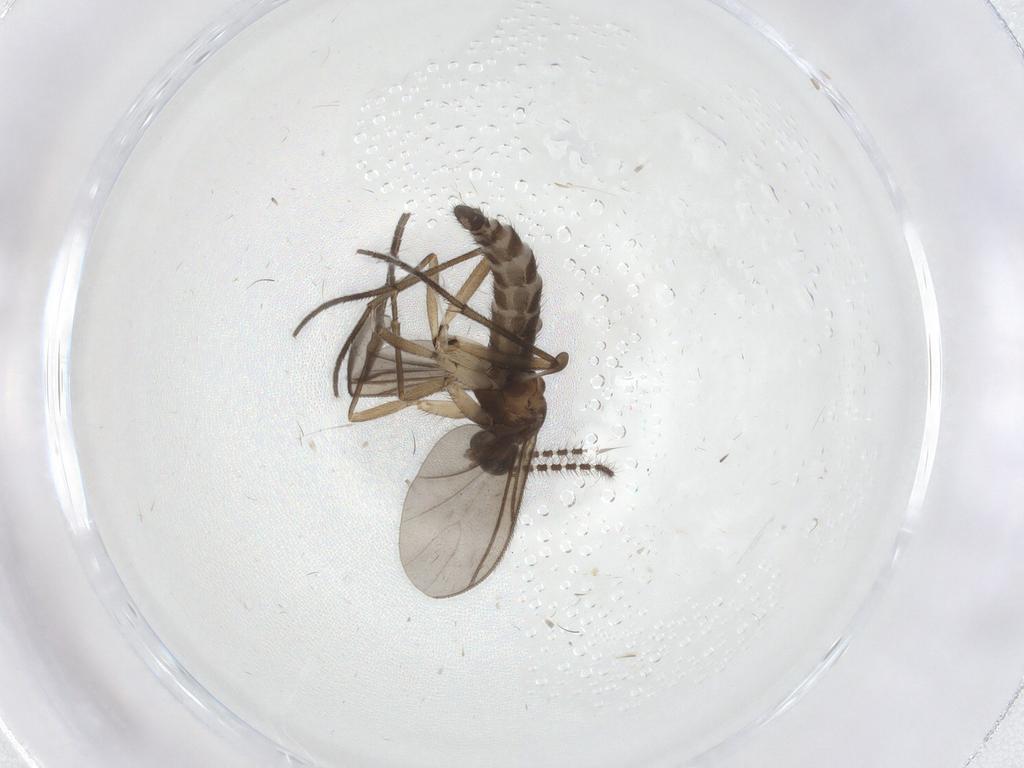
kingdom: Animalia
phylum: Arthropoda
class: Insecta
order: Diptera
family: Sciaridae
